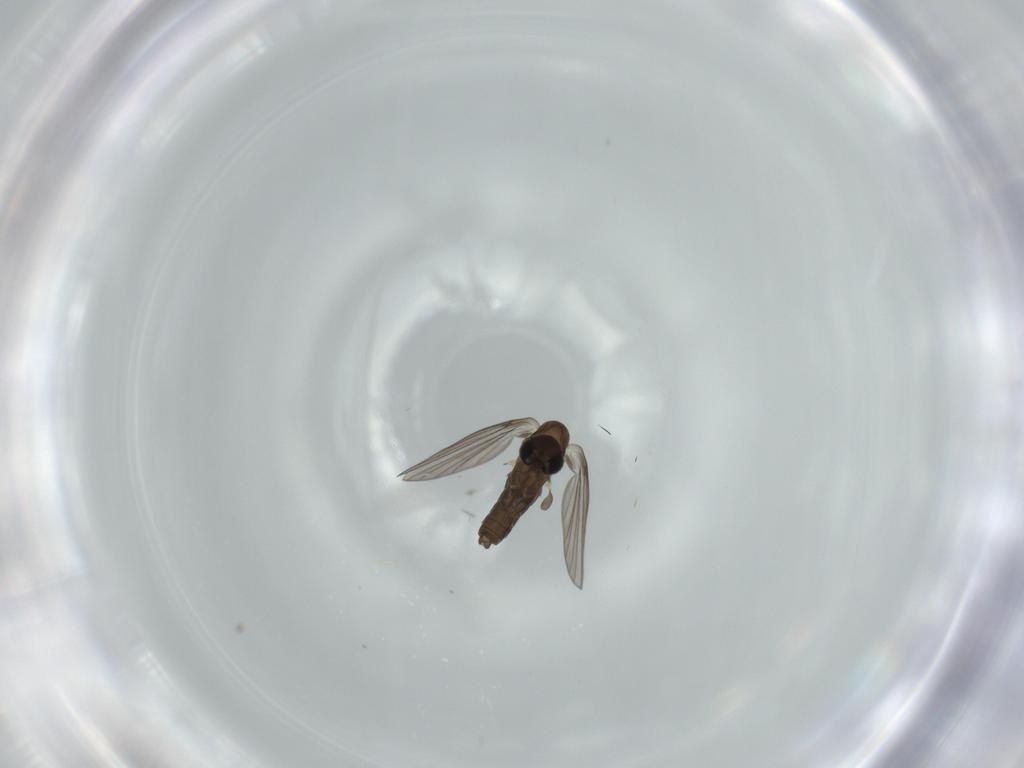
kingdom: Animalia
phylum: Arthropoda
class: Insecta
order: Diptera
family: Psychodidae
